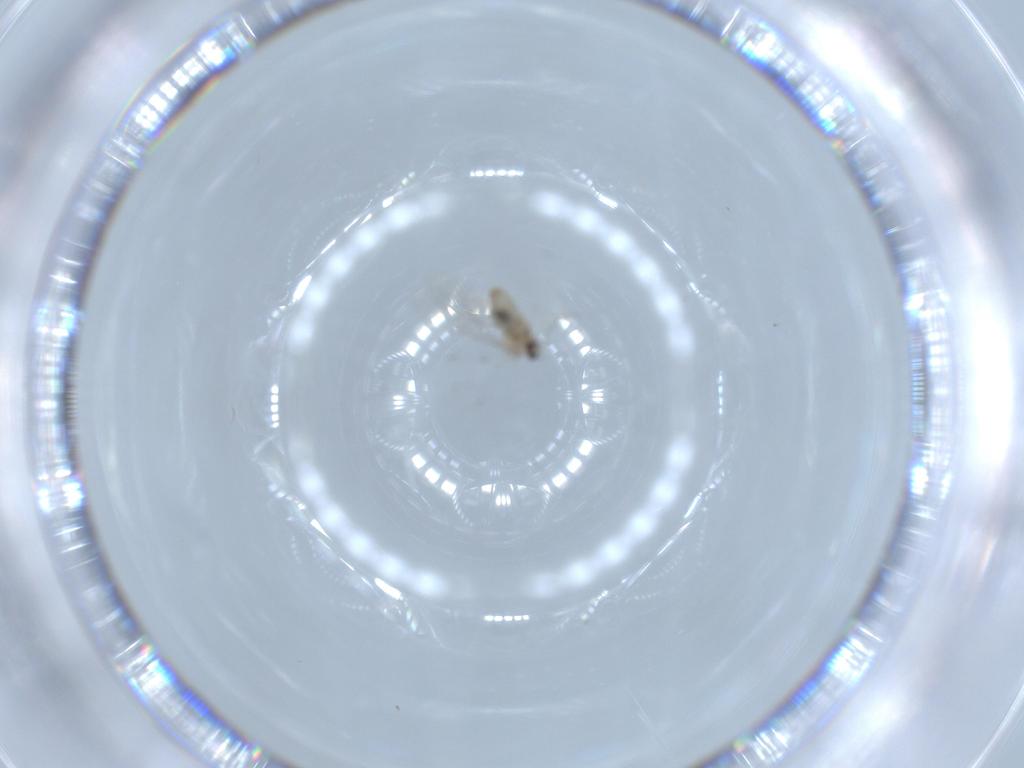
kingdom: Animalia
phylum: Arthropoda
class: Insecta
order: Diptera
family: Cecidomyiidae
